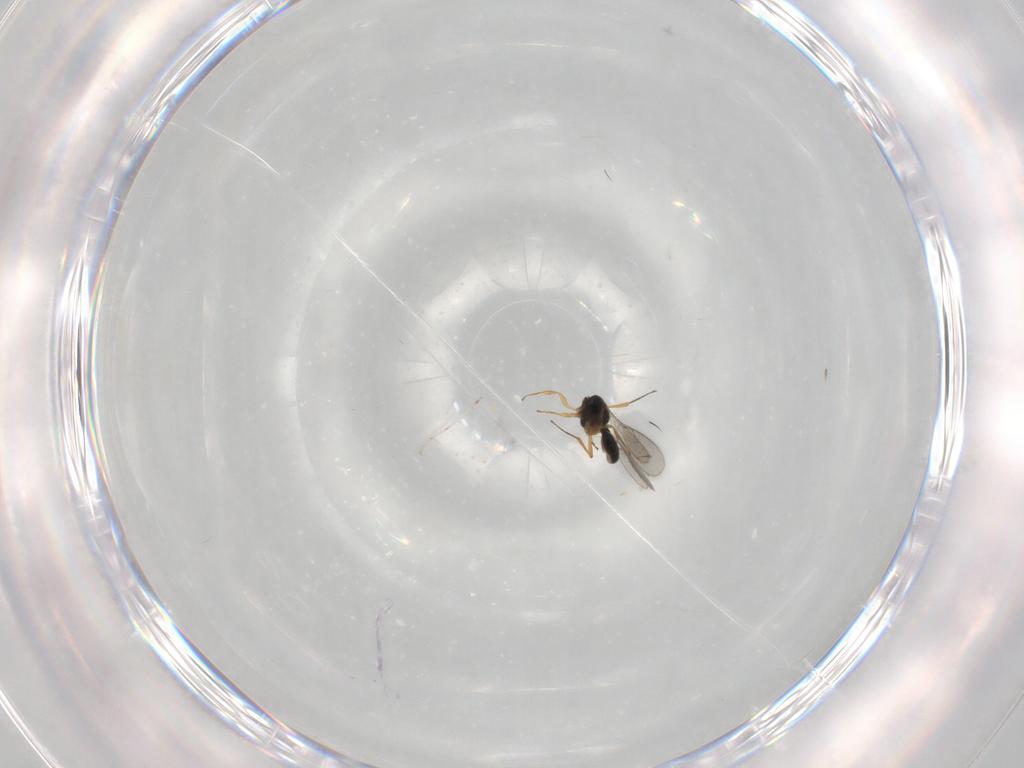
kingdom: Animalia
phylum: Arthropoda
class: Insecta
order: Hymenoptera
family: Scelionidae
